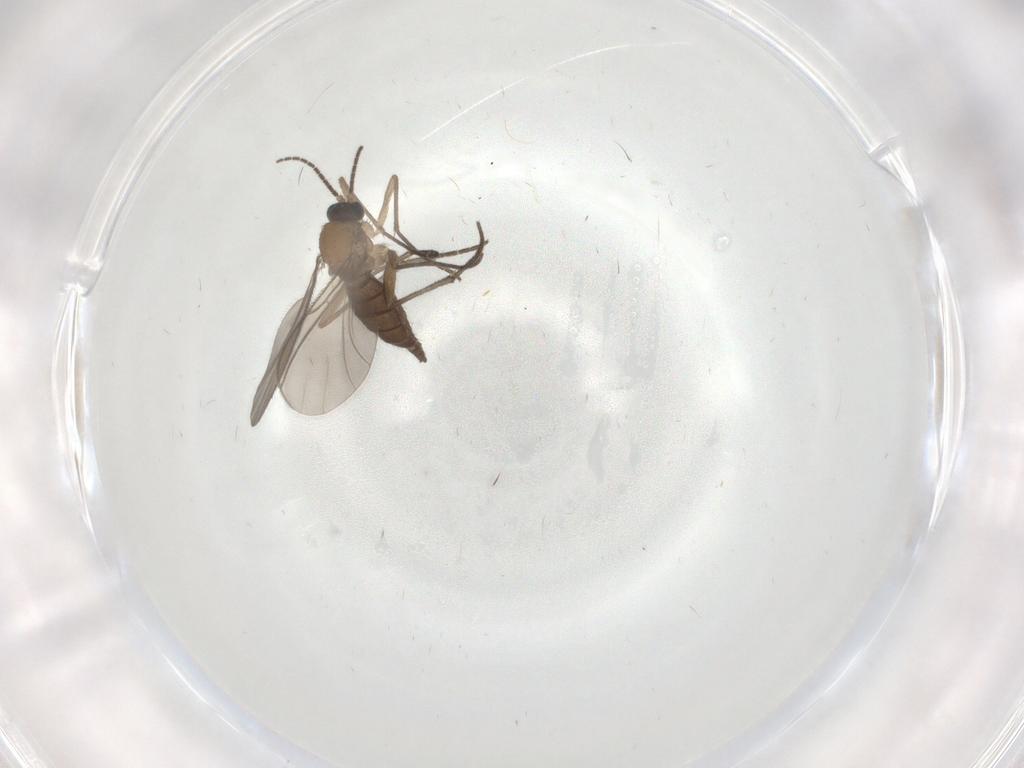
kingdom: Animalia
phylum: Arthropoda
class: Insecta
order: Diptera
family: Sciaridae
